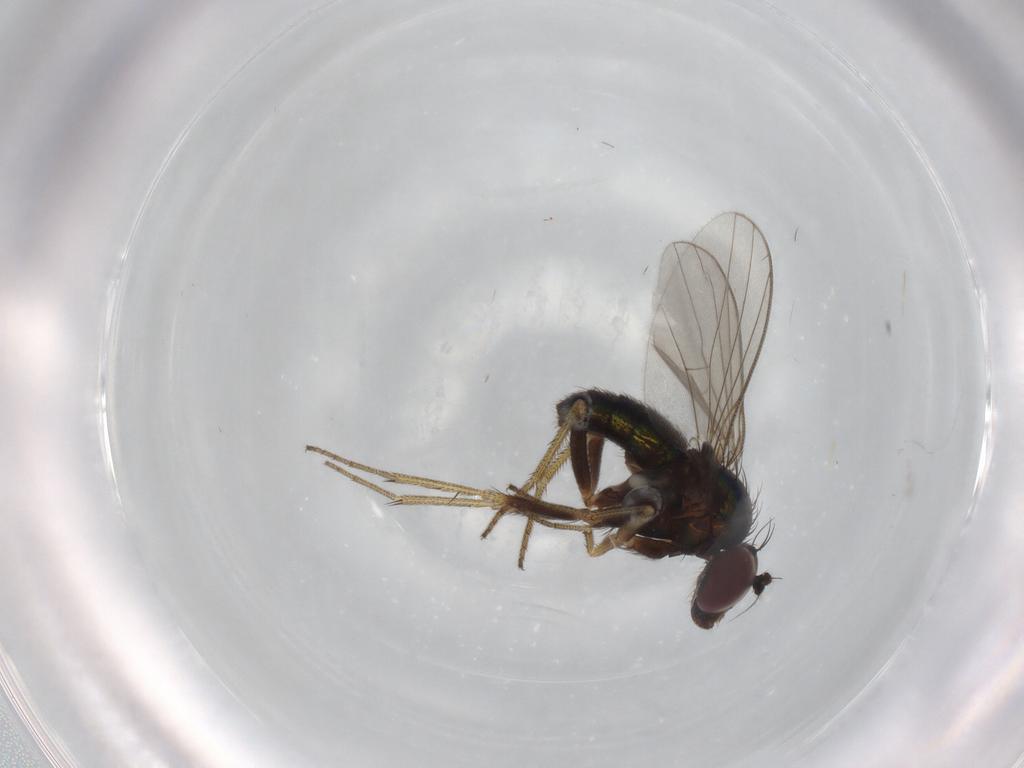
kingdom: Animalia
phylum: Arthropoda
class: Insecta
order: Diptera
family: Dolichopodidae
